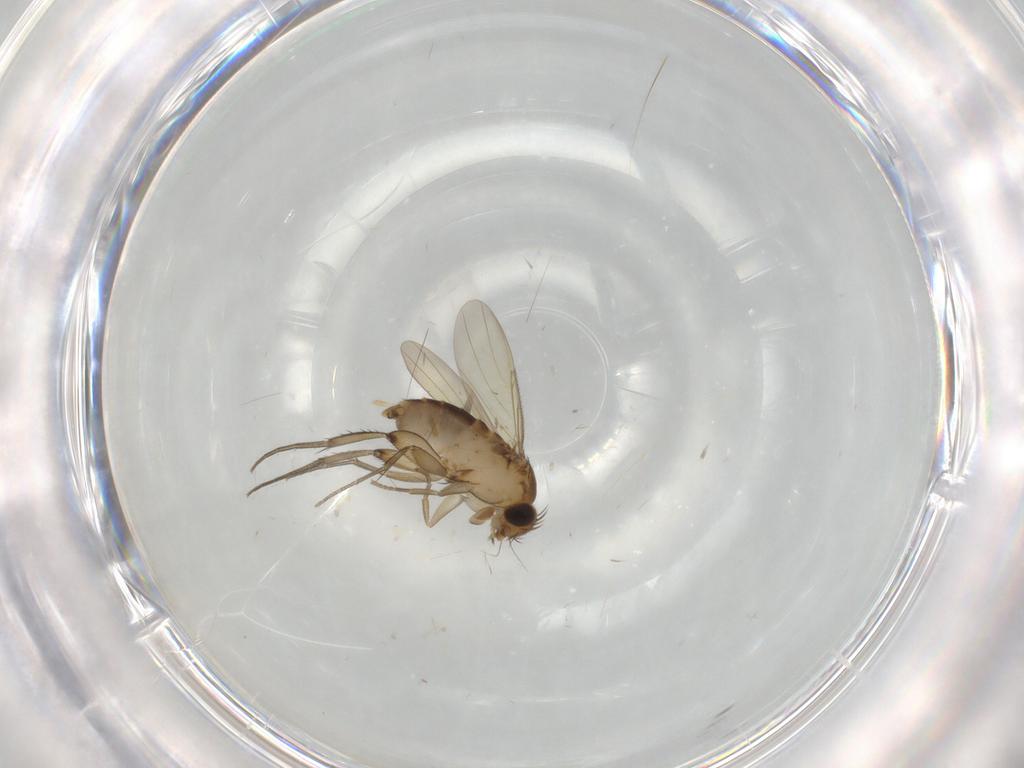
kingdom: Animalia
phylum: Arthropoda
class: Insecta
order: Diptera
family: Phoridae
